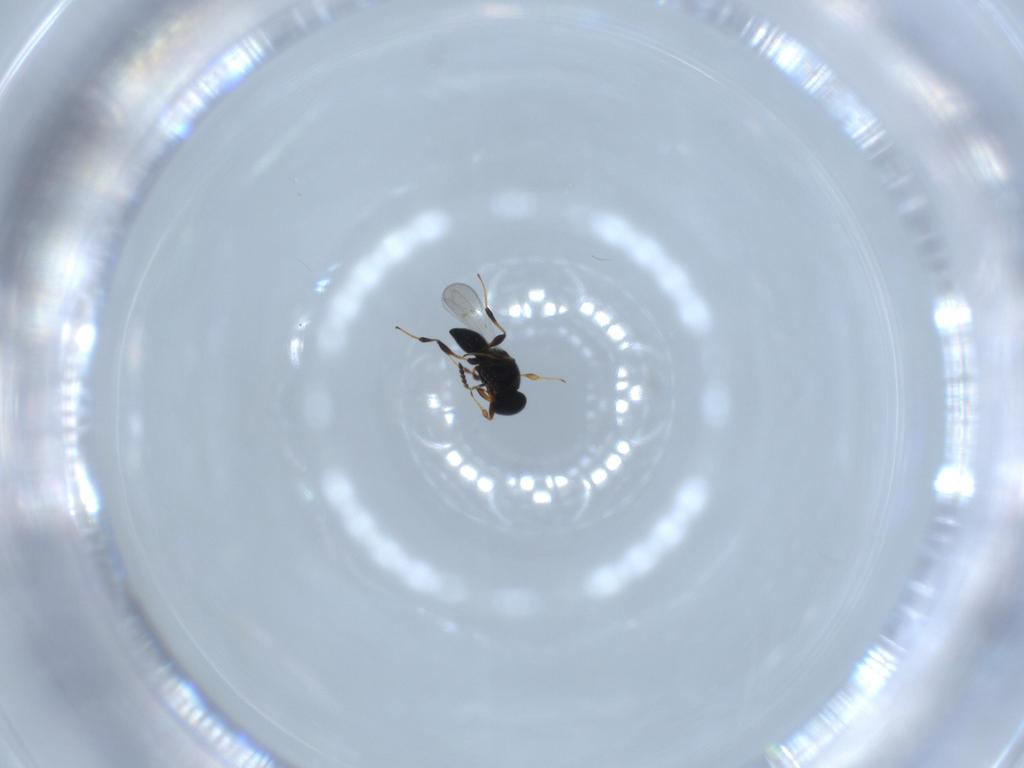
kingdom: Animalia
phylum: Arthropoda
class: Insecta
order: Hymenoptera
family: Platygastridae
